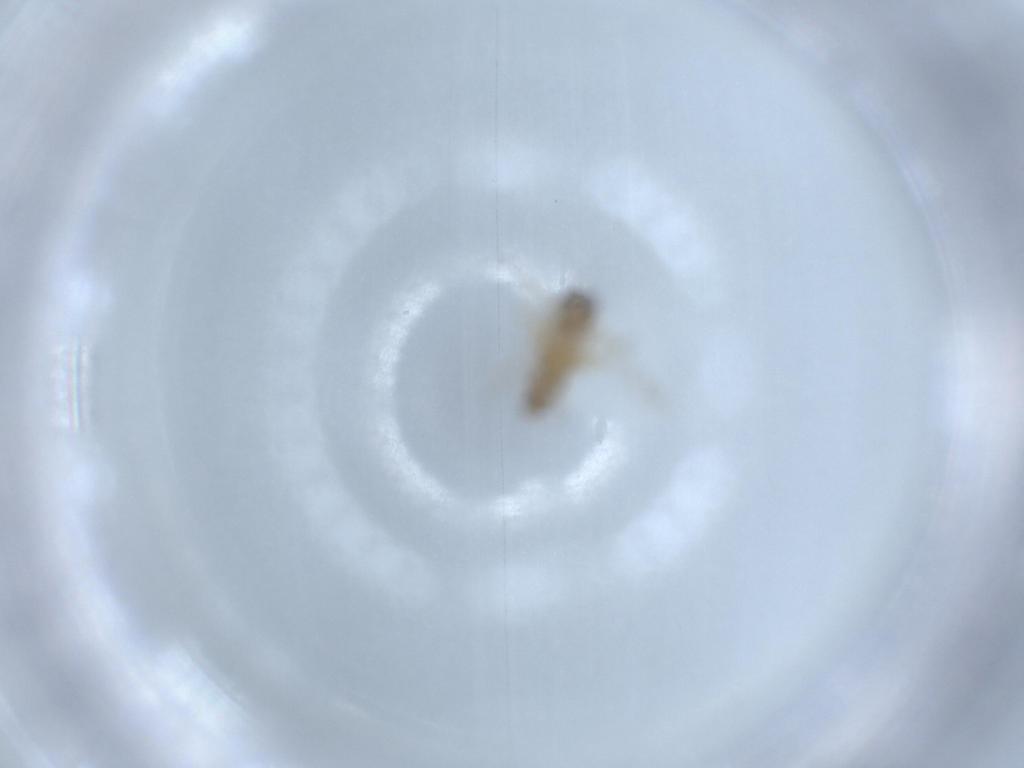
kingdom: Animalia
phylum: Arthropoda
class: Insecta
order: Diptera
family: Ceratopogonidae
